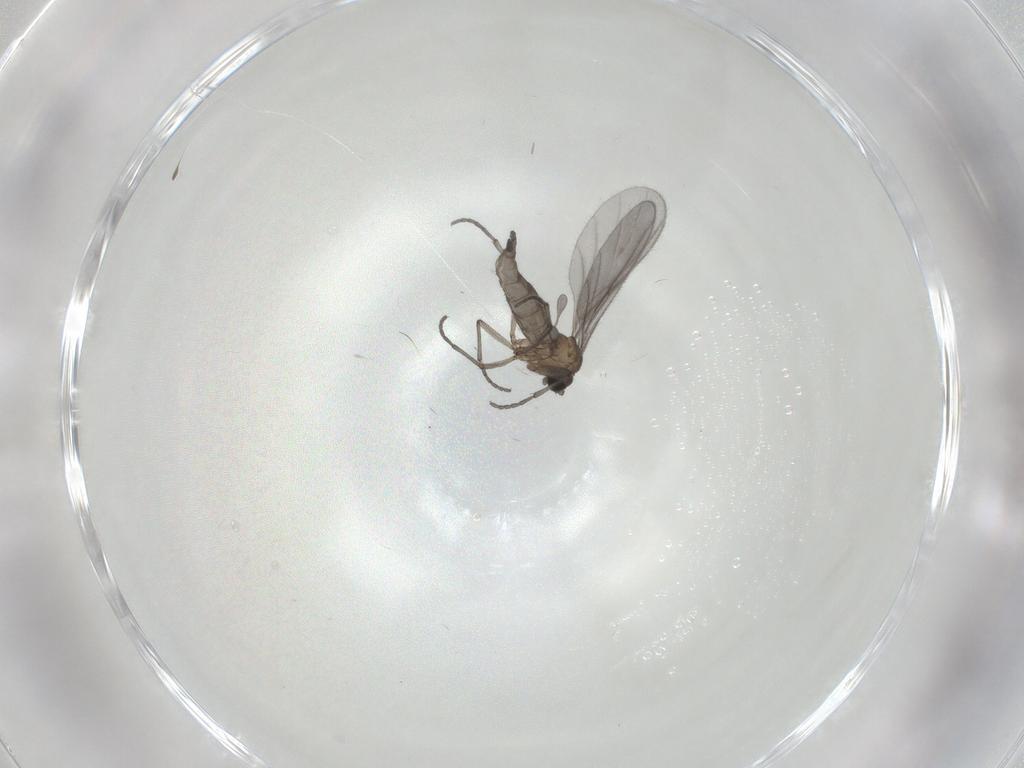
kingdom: Animalia
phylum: Arthropoda
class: Insecta
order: Diptera
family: Sciaridae
